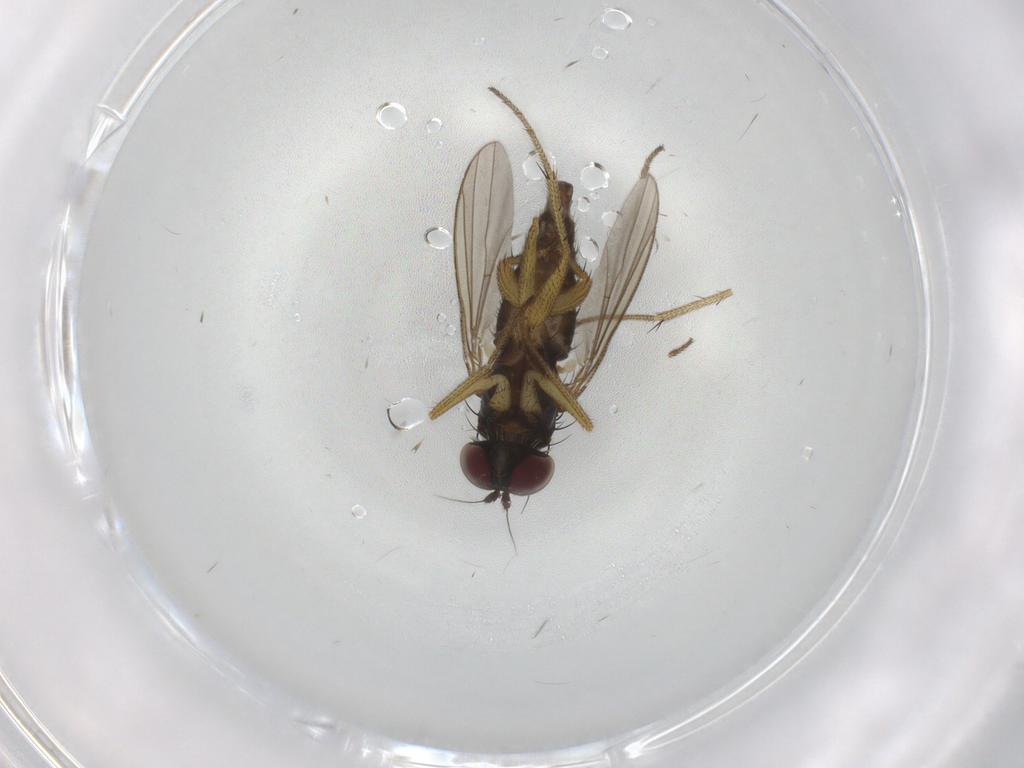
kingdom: Animalia
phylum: Arthropoda
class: Insecta
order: Diptera
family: Dolichopodidae
